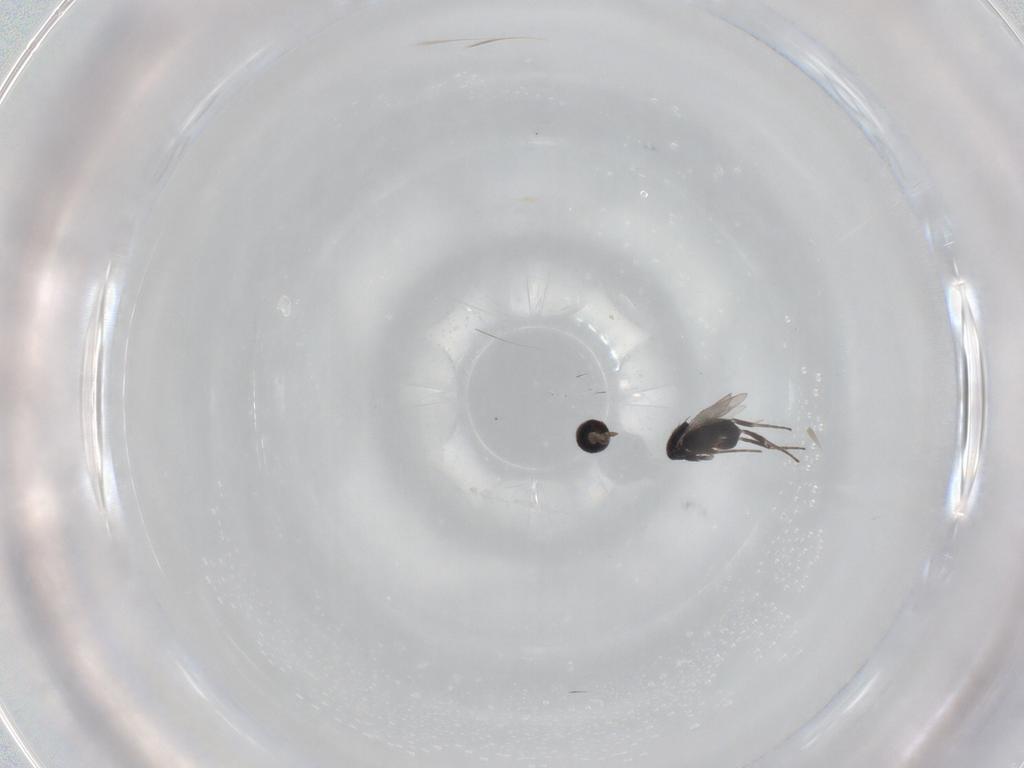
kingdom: Animalia
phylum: Arthropoda
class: Insecta
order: Hymenoptera
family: Eulophidae
